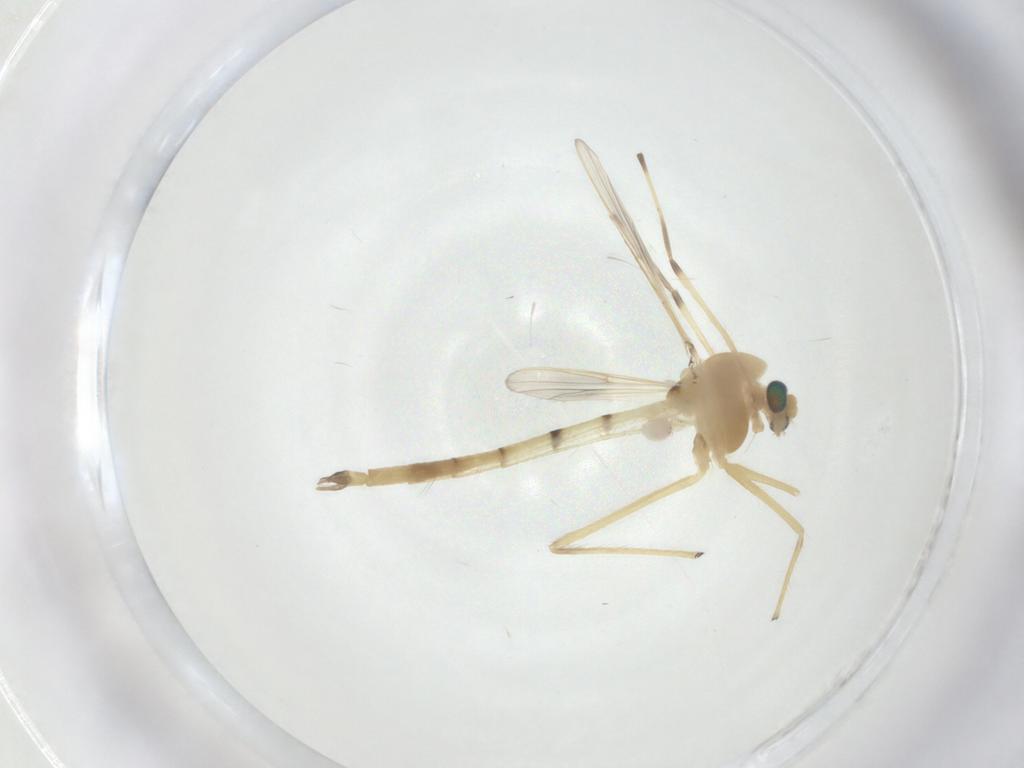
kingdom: Animalia
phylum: Arthropoda
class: Insecta
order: Diptera
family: Chironomidae
